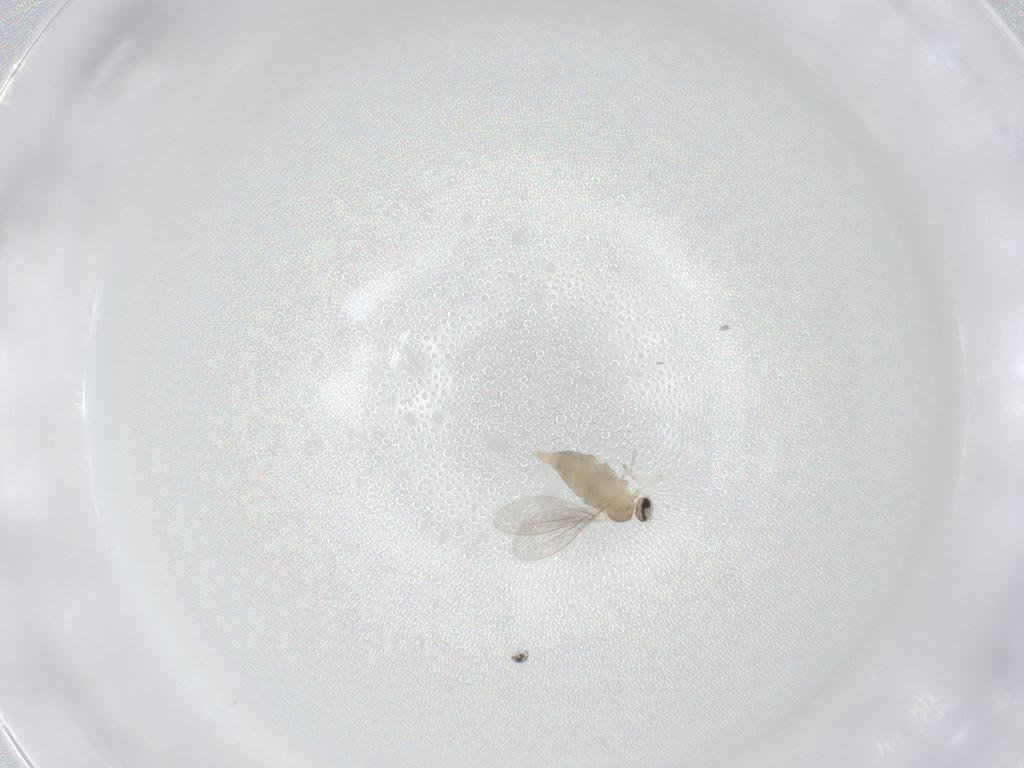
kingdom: Animalia
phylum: Arthropoda
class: Insecta
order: Diptera
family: Cecidomyiidae
